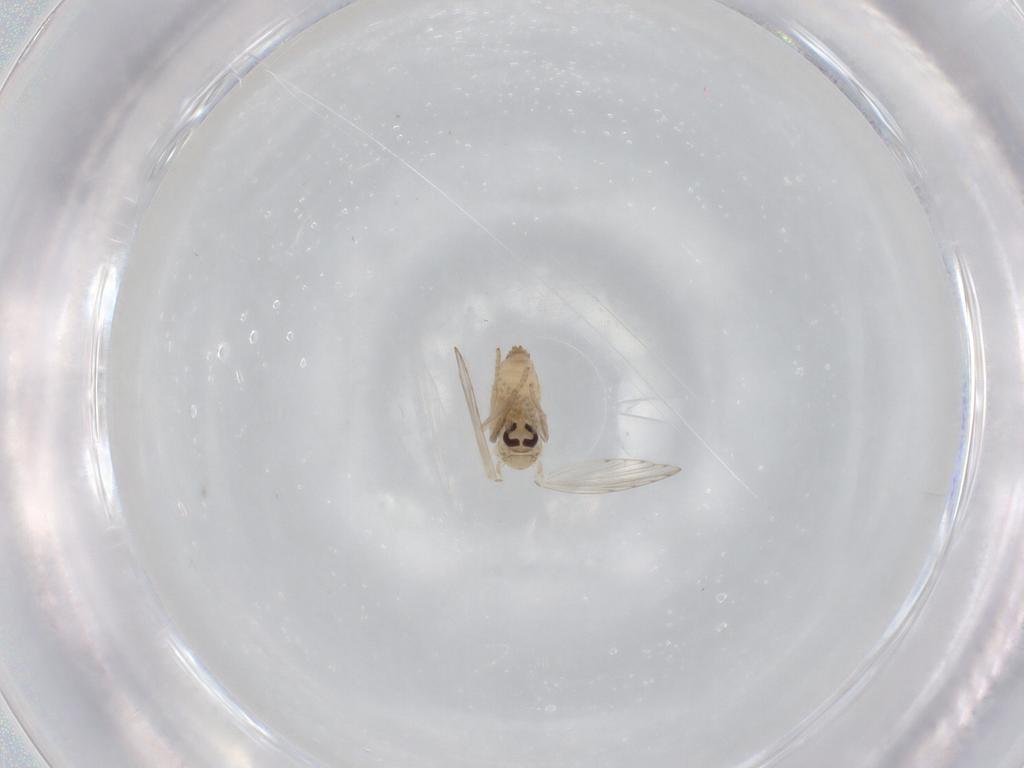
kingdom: Animalia
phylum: Arthropoda
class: Insecta
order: Diptera
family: Psychodidae
